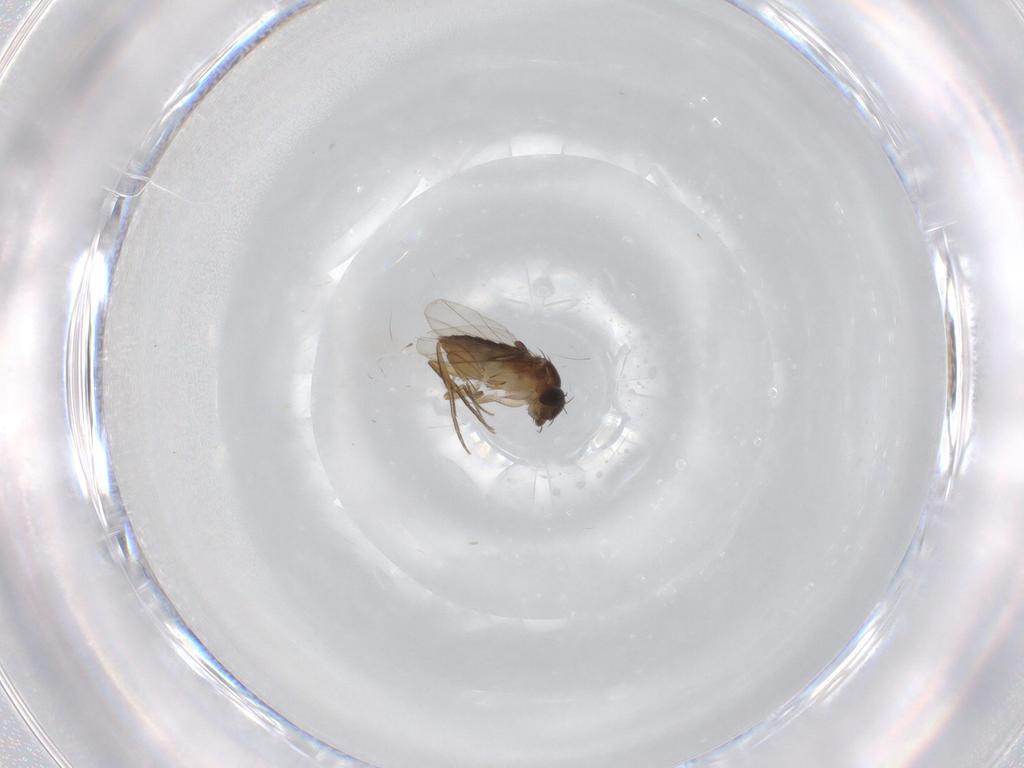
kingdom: Animalia
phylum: Arthropoda
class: Insecta
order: Diptera
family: Phoridae
